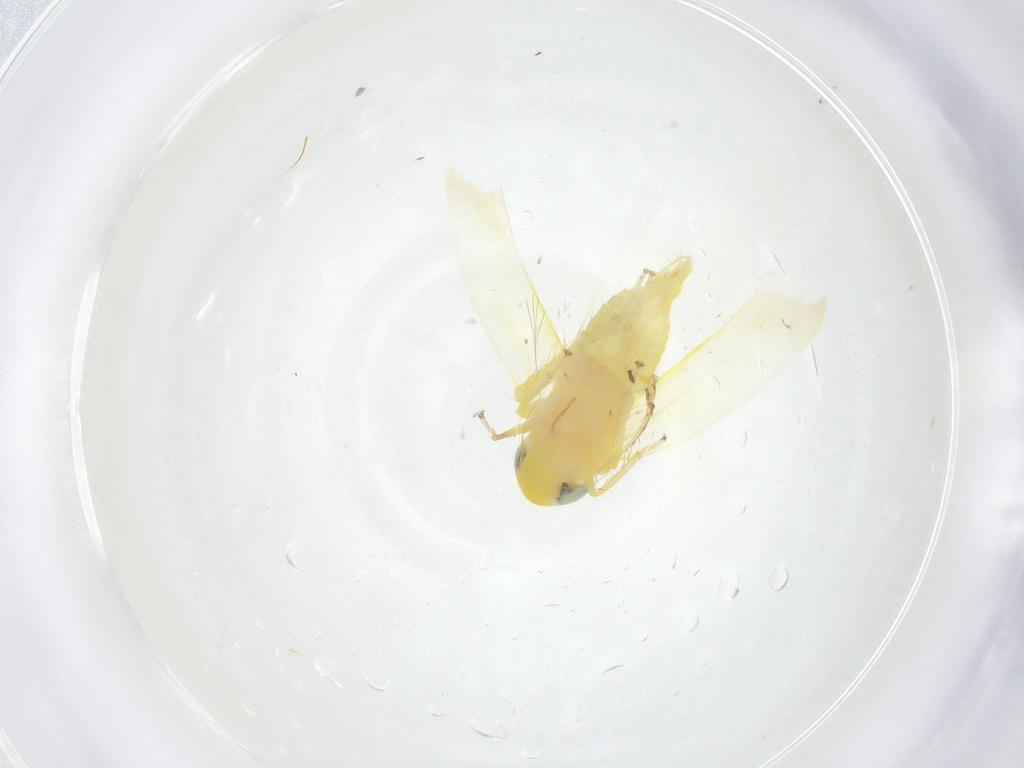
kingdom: Animalia
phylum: Arthropoda
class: Insecta
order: Hemiptera
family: Cicadellidae
